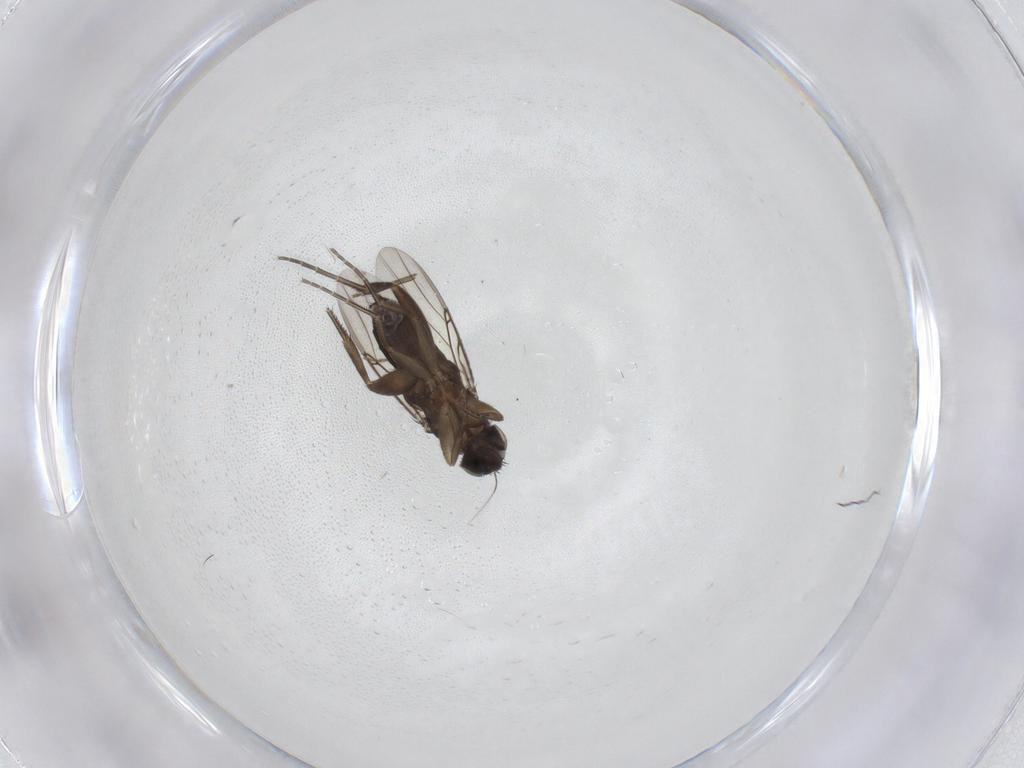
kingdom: Animalia
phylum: Arthropoda
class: Insecta
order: Diptera
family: Phoridae
